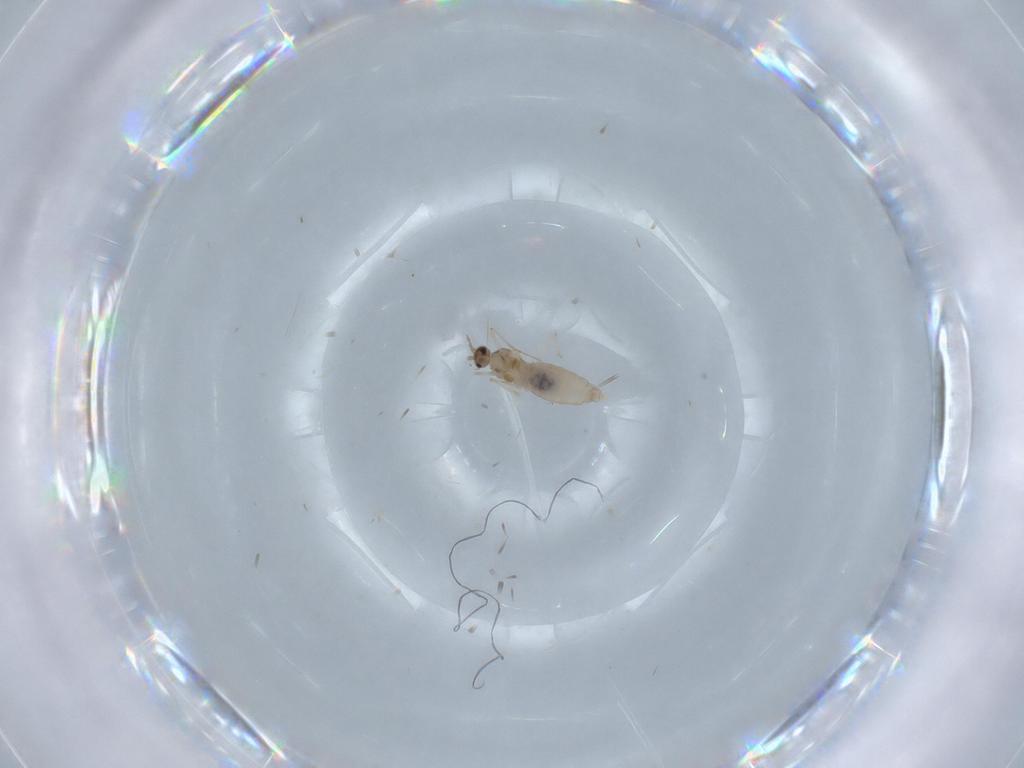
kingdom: Animalia
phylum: Arthropoda
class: Insecta
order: Diptera
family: Cecidomyiidae
